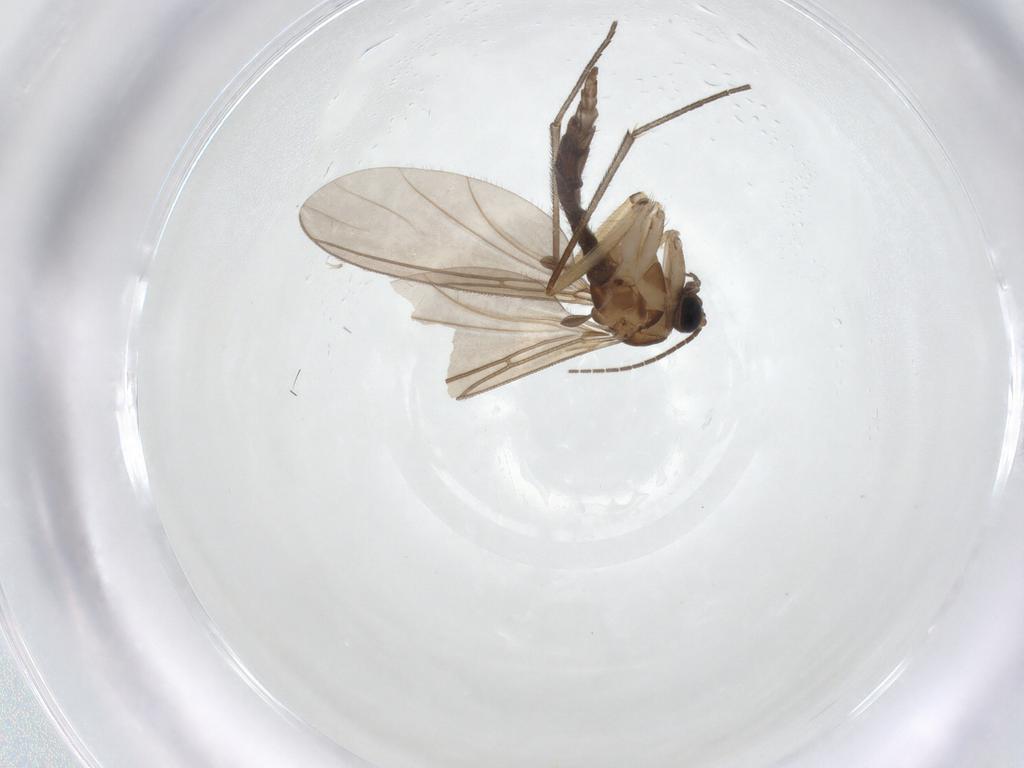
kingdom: Animalia
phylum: Arthropoda
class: Insecta
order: Diptera
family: Sciaridae
